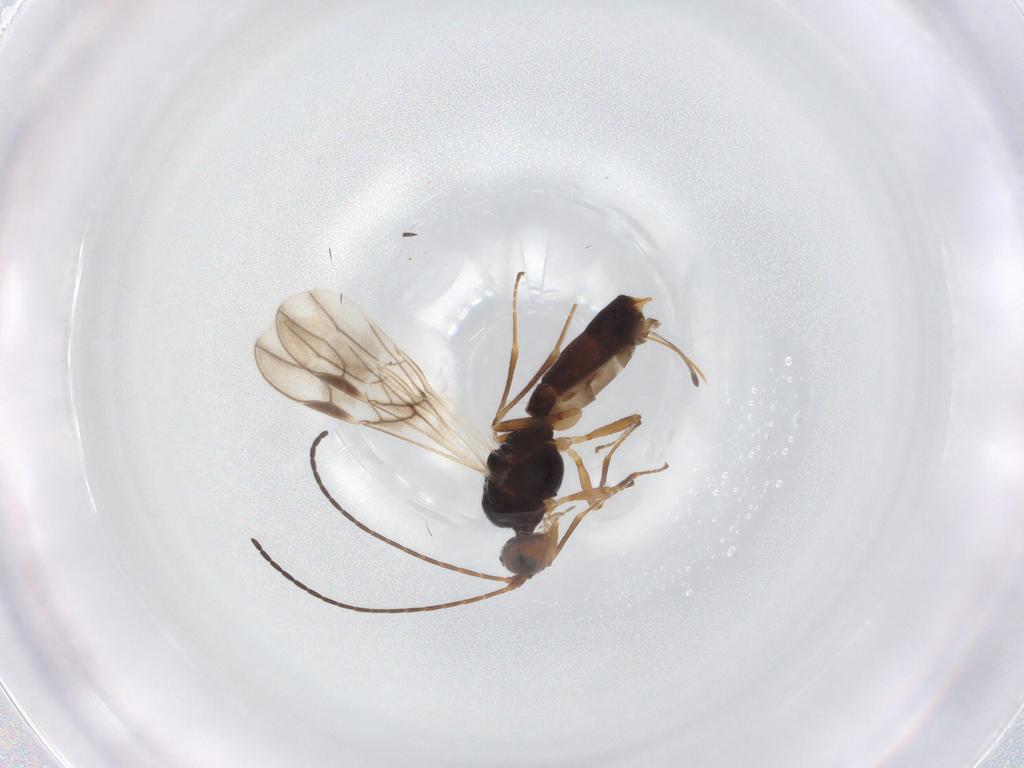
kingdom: Animalia
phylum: Arthropoda
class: Insecta
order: Hymenoptera
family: Braconidae
